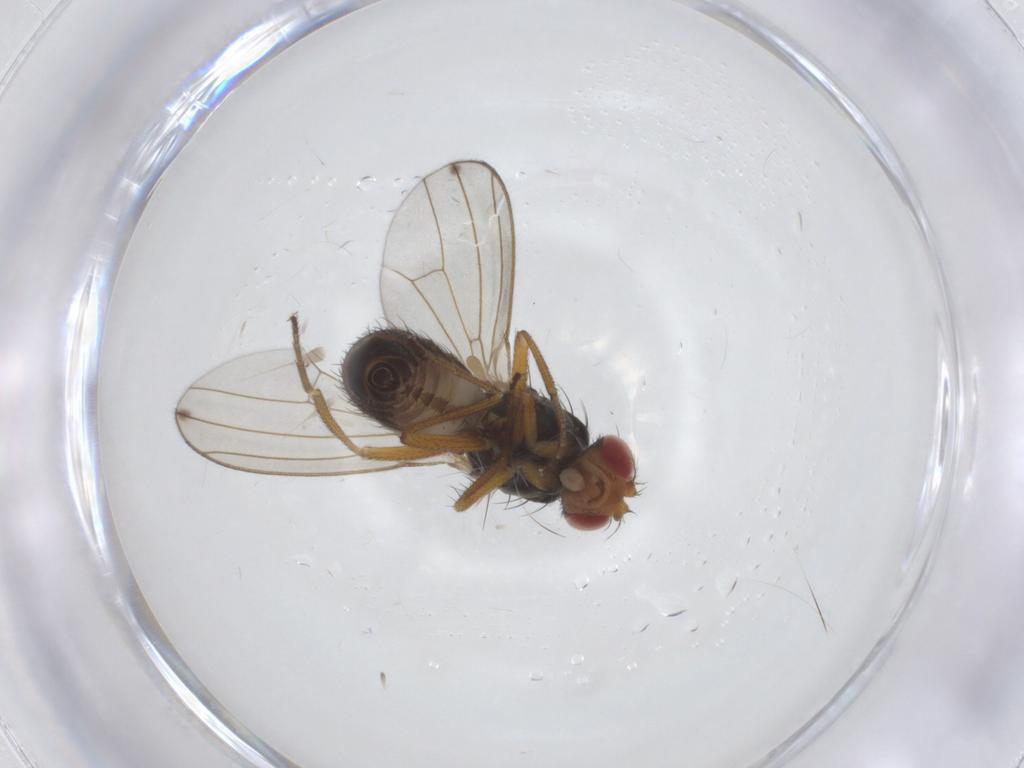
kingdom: Animalia
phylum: Arthropoda
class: Insecta
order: Diptera
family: Drosophilidae
